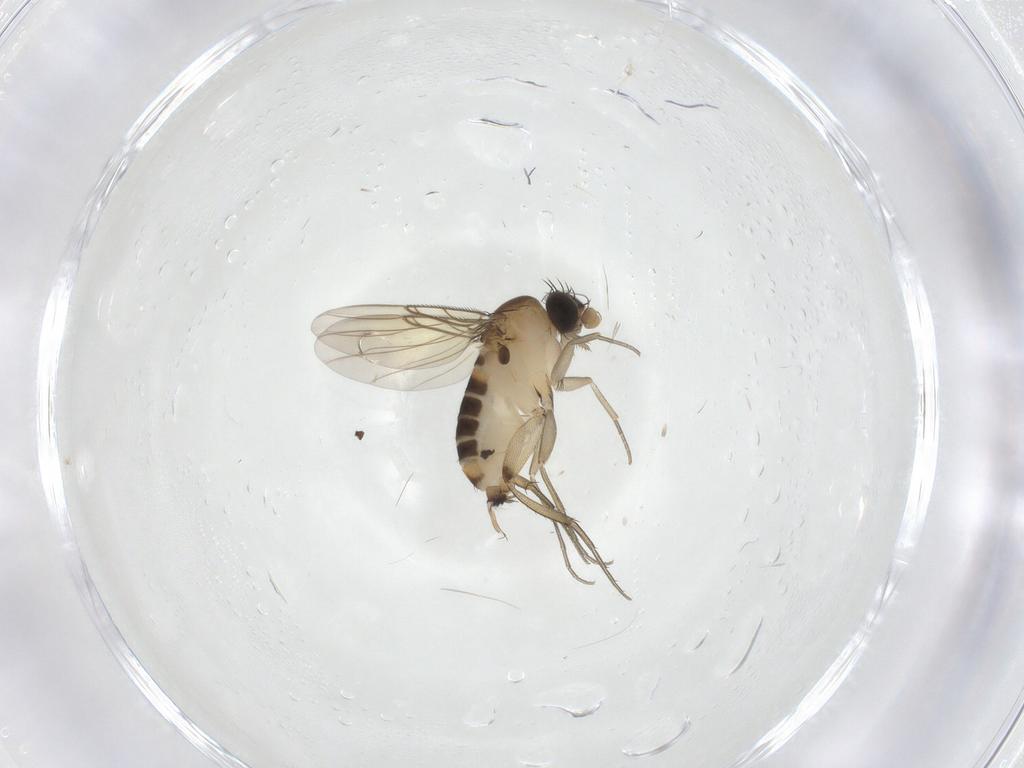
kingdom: Animalia
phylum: Arthropoda
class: Insecta
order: Diptera
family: Phoridae
